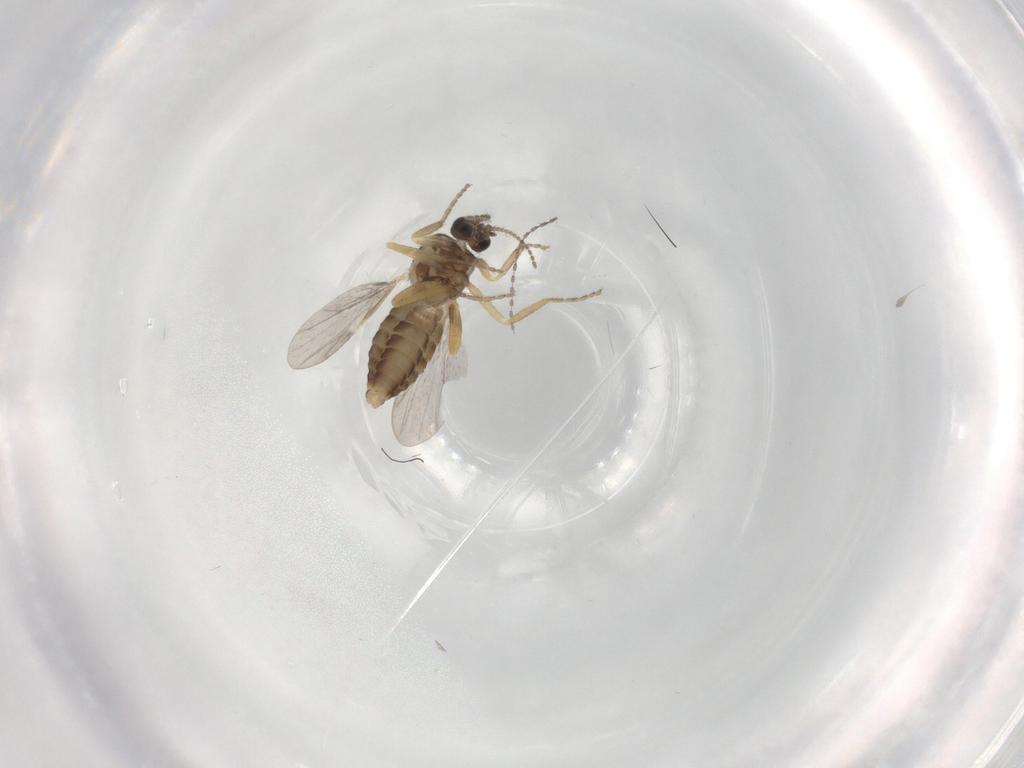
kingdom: Animalia
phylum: Arthropoda
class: Insecta
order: Diptera
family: Ceratopogonidae
